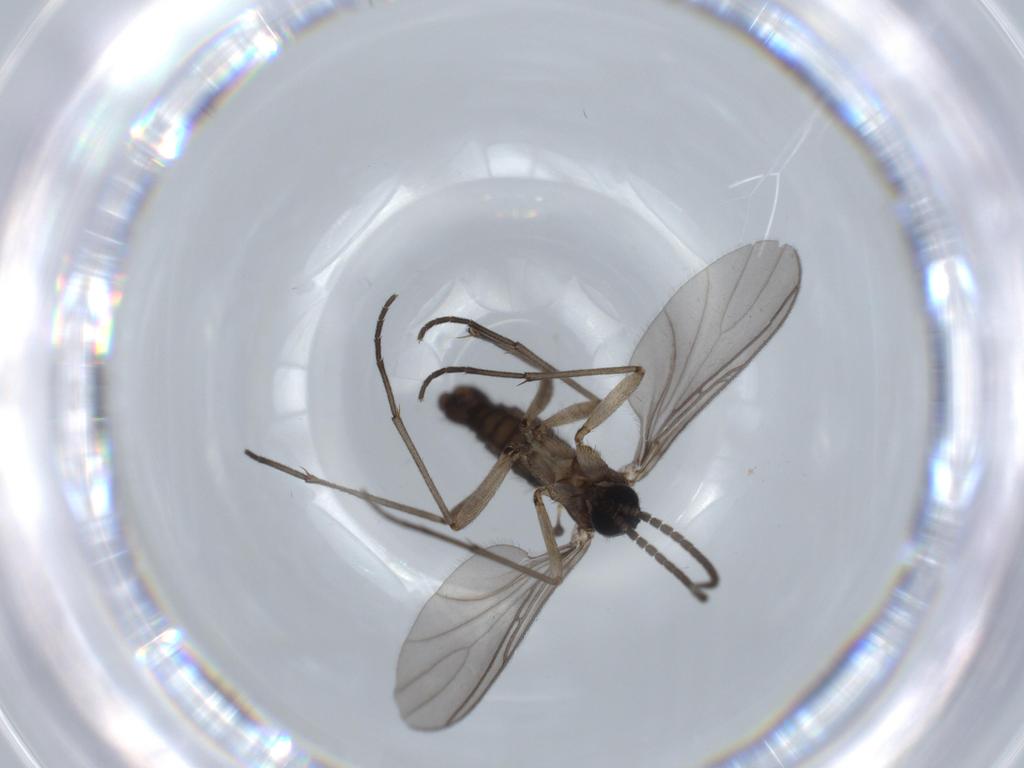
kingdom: Animalia
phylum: Arthropoda
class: Insecta
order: Diptera
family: Sciaridae
